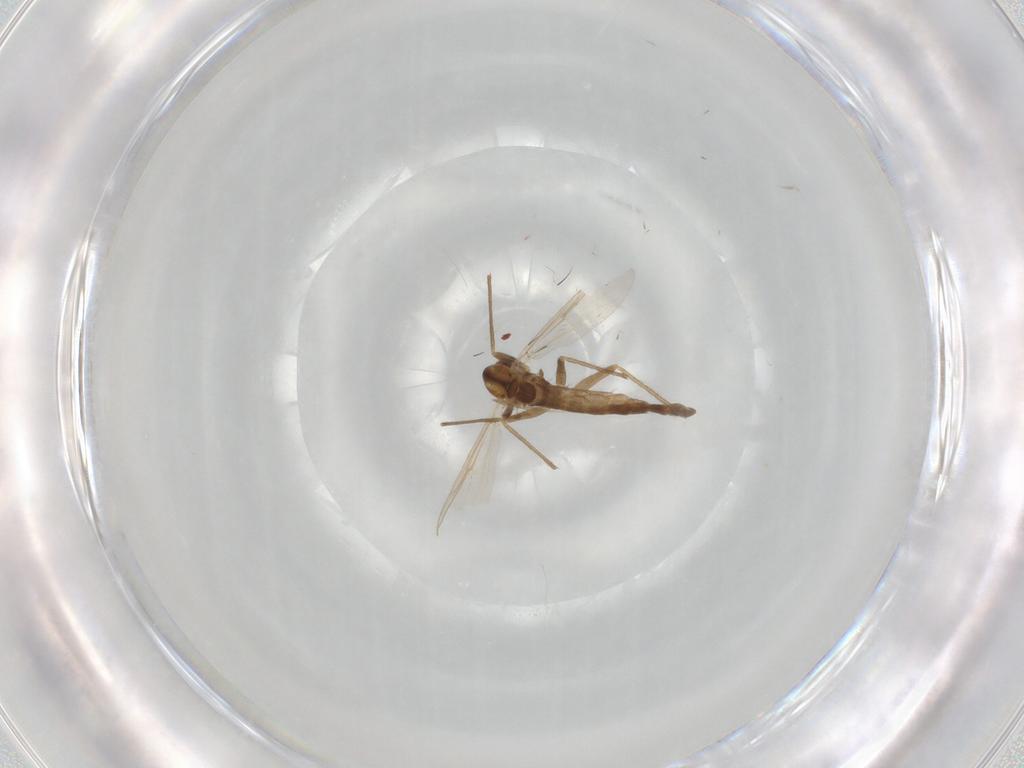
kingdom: Animalia
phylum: Arthropoda
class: Insecta
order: Diptera
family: Chironomidae
